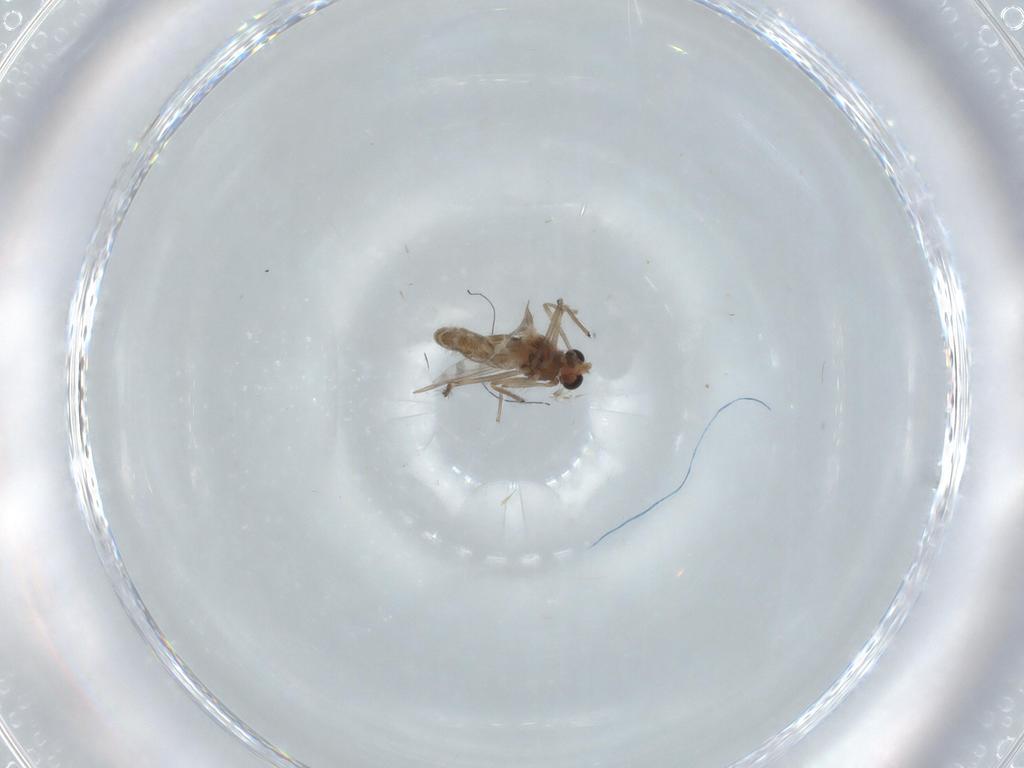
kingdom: Animalia
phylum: Arthropoda
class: Insecta
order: Diptera
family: Chironomidae
